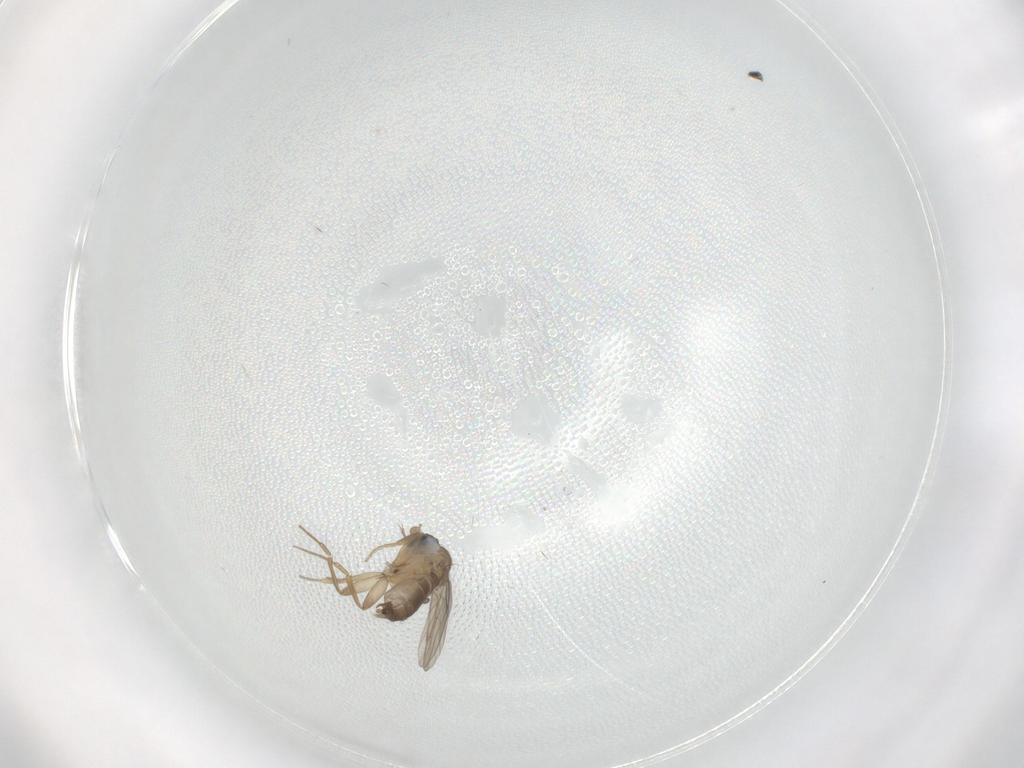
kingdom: Animalia
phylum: Arthropoda
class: Insecta
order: Diptera
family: Phoridae
